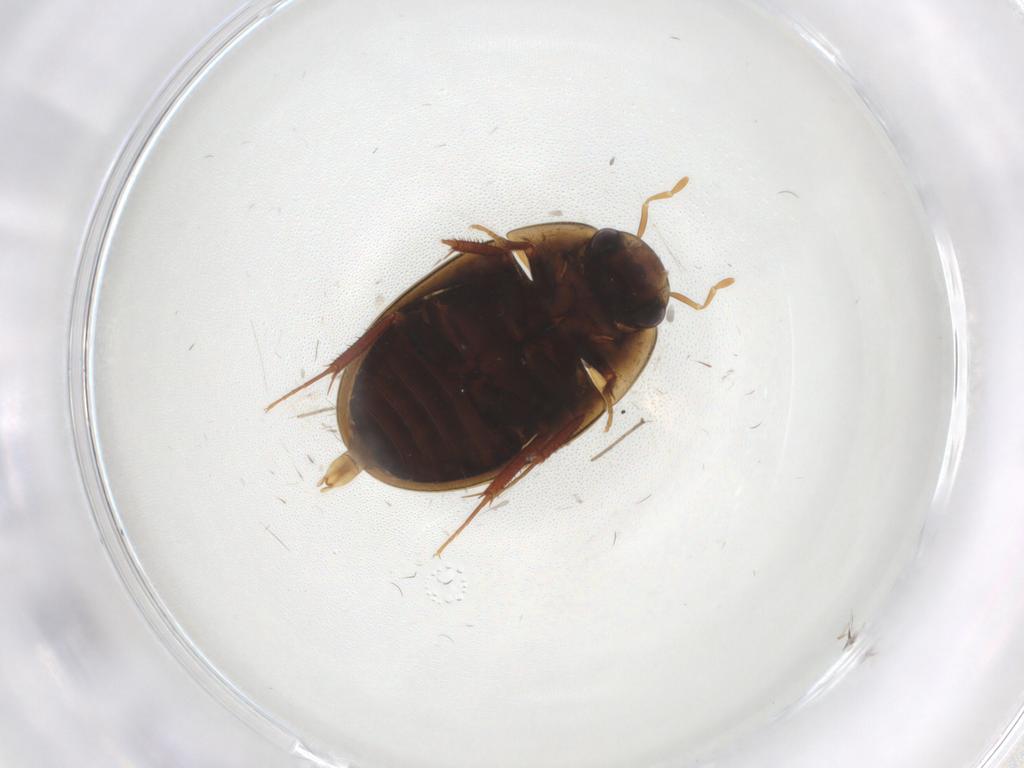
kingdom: Animalia
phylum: Arthropoda
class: Insecta
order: Coleoptera
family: Hydrophilidae
